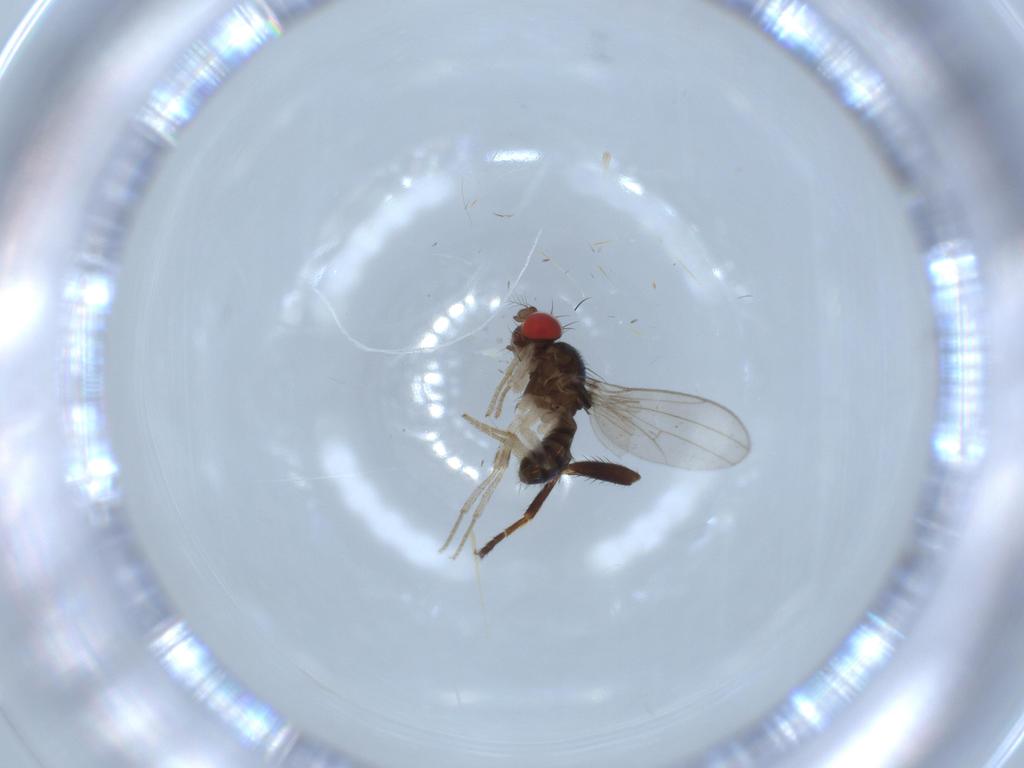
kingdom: Animalia
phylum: Arthropoda
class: Insecta
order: Diptera
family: Drosophilidae
